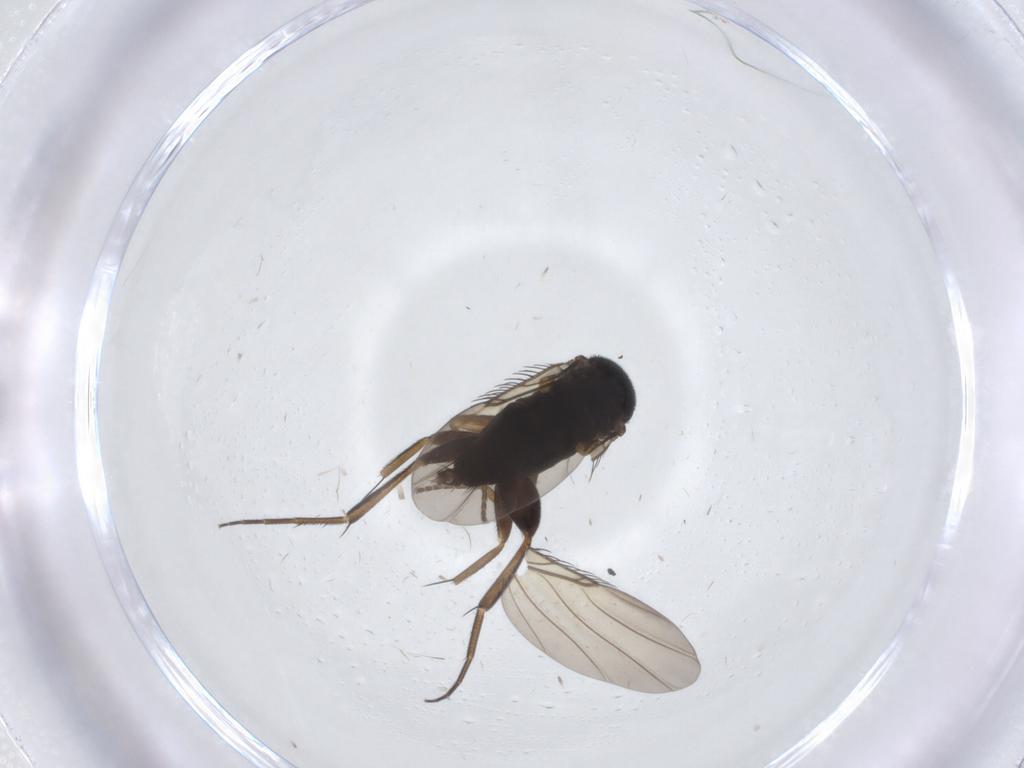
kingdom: Animalia
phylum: Arthropoda
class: Insecta
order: Diptera
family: Phoridae
